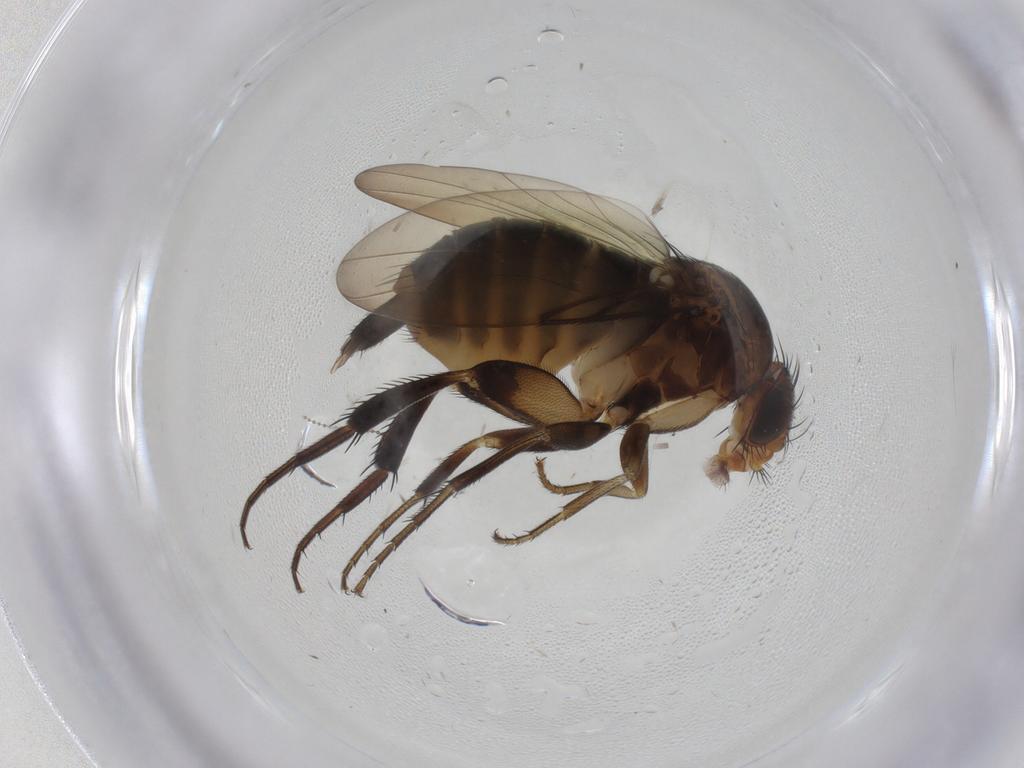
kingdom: Animalia
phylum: Arthropoda
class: Insecta
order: Diptera
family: Phoridae
